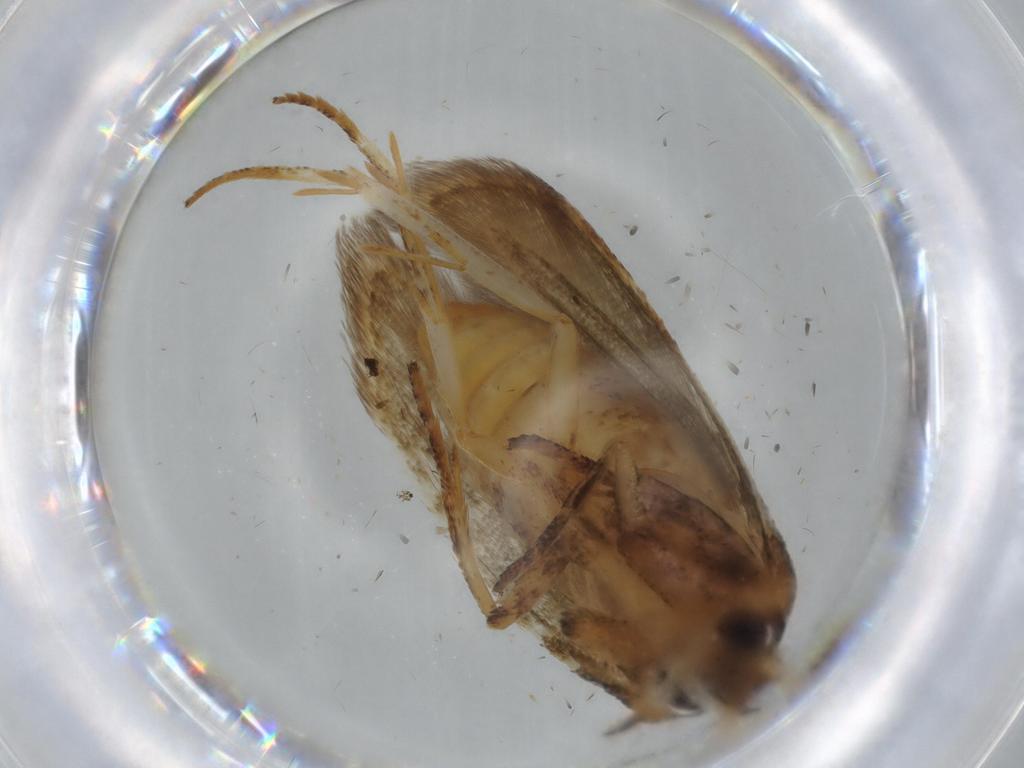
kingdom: Animalia
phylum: Arthropoda
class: Insecta
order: Lepidoptera
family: Blastobasidae
